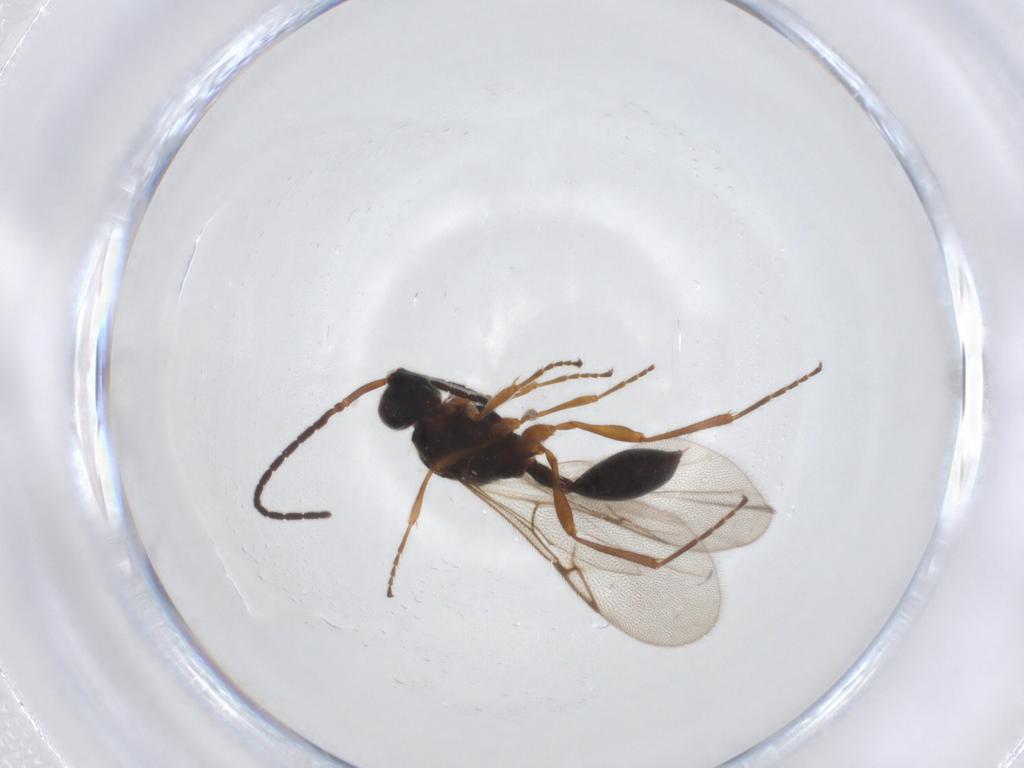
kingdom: Animalia
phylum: Arthropoda
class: Insecta
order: Hymenoptera
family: Diapriidae
